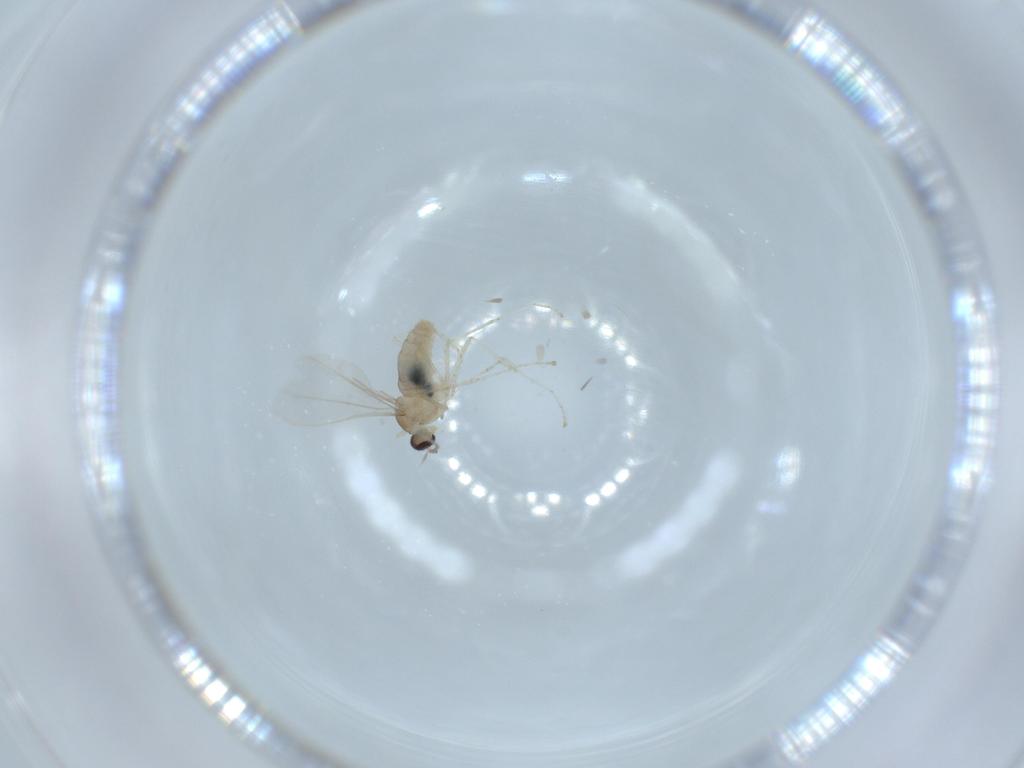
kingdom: Animalia
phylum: Arthropoda
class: Insecta
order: Diptera
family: Cecidomyiidae
